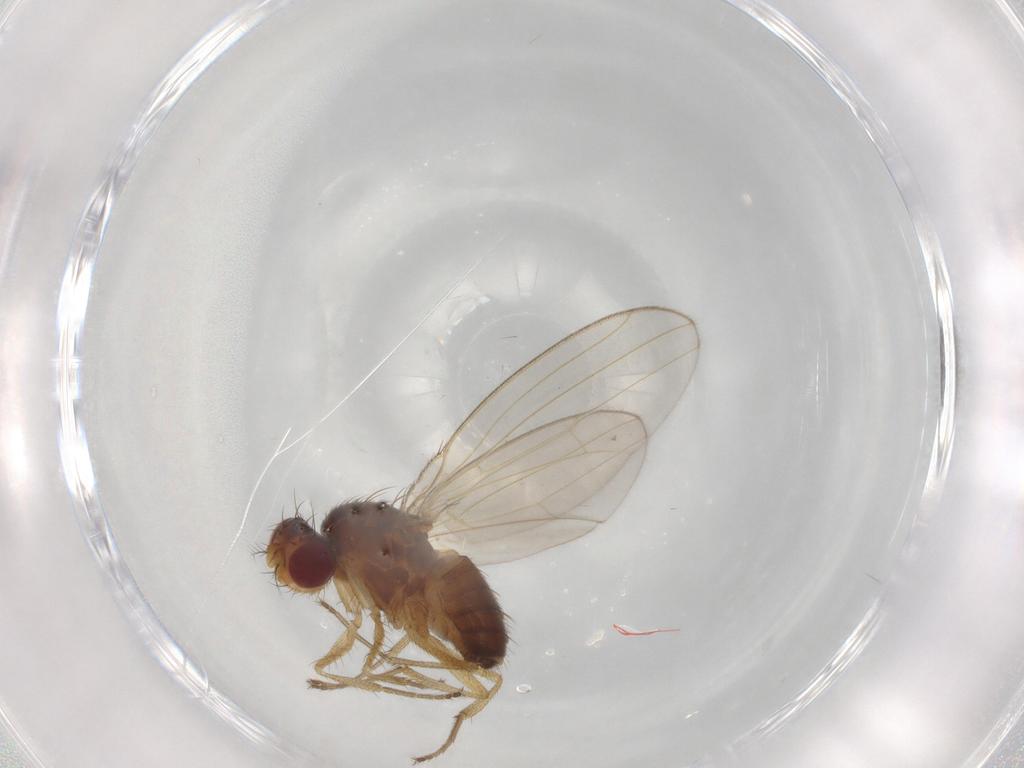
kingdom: Animalia
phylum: Arthropoda
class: Insecta
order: Diptera
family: Drosophilidae
